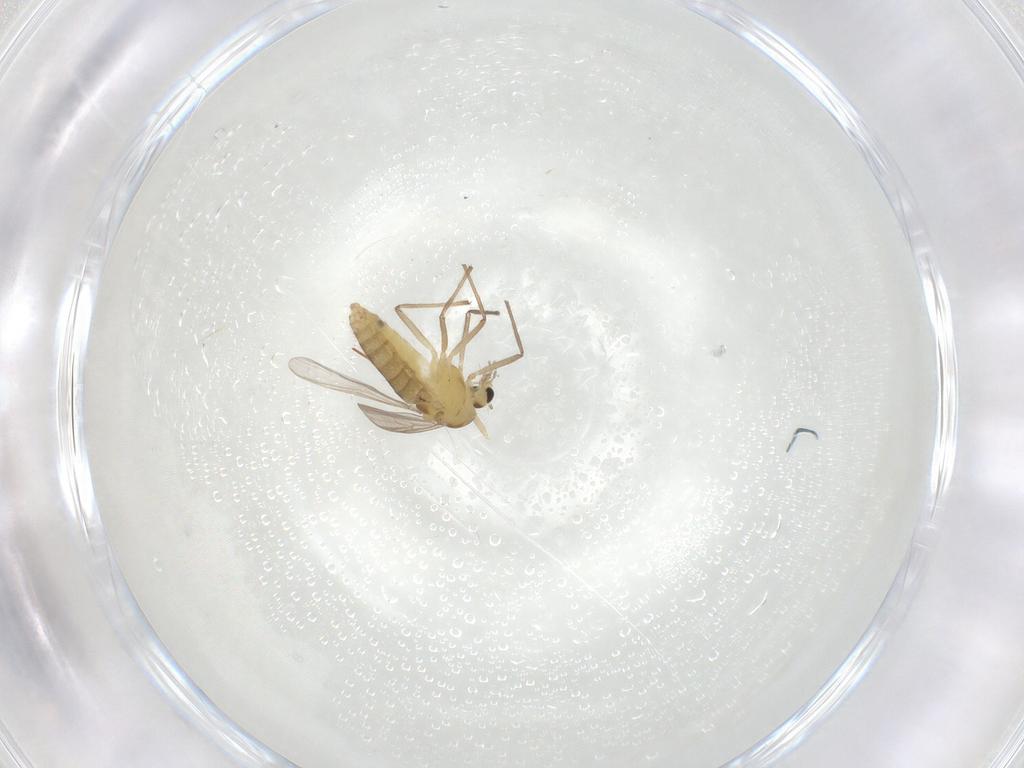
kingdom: Animalia
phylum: Arthropoda
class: Insecta
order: Diptera
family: Chironomidae
